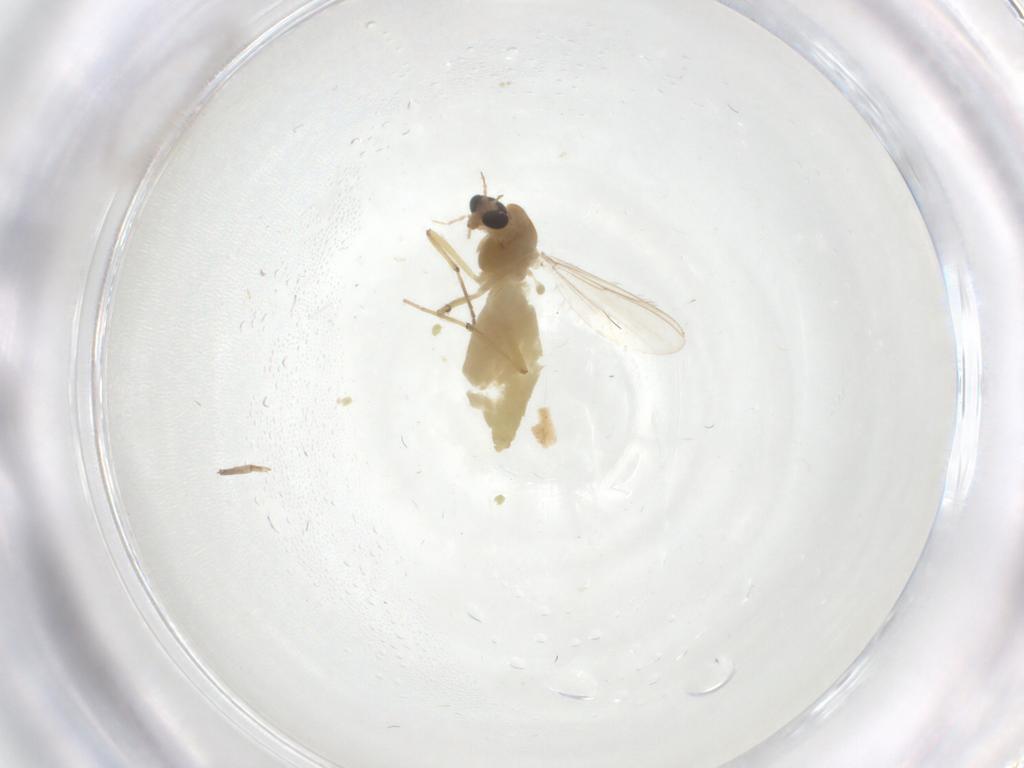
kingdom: Animalia
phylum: Arthropoda
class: Insecta
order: Diptera
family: Chironomidae
